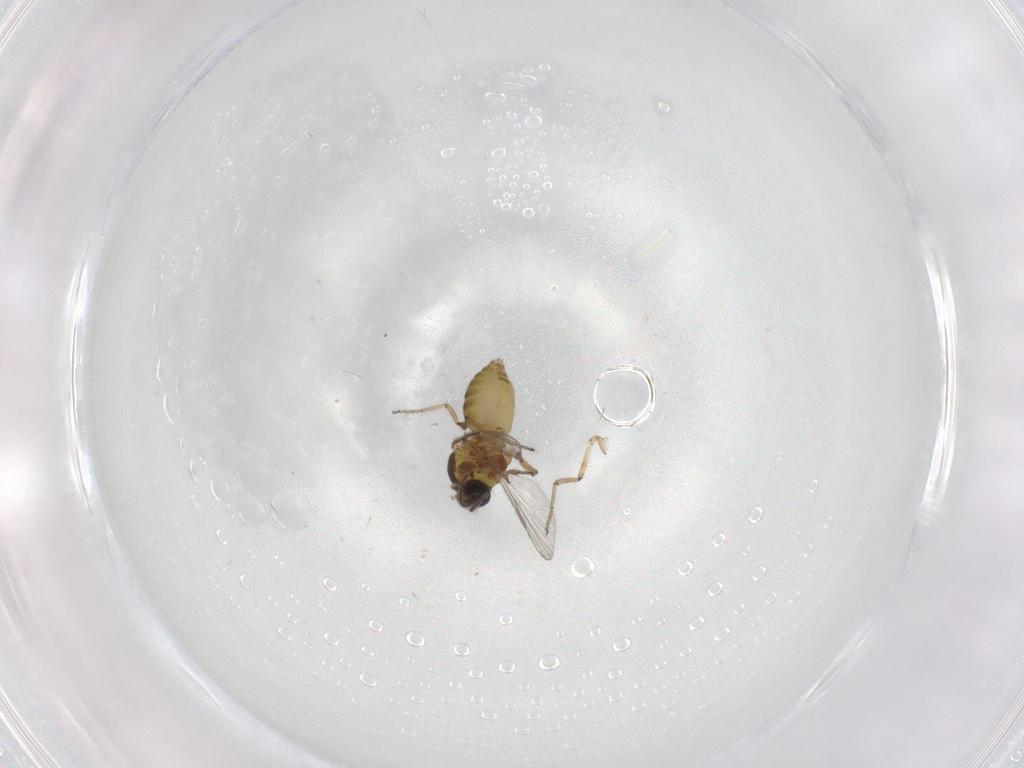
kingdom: Animalia
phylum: Arthropoda
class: Insecta
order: Diptera
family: Ceratopogonidae
